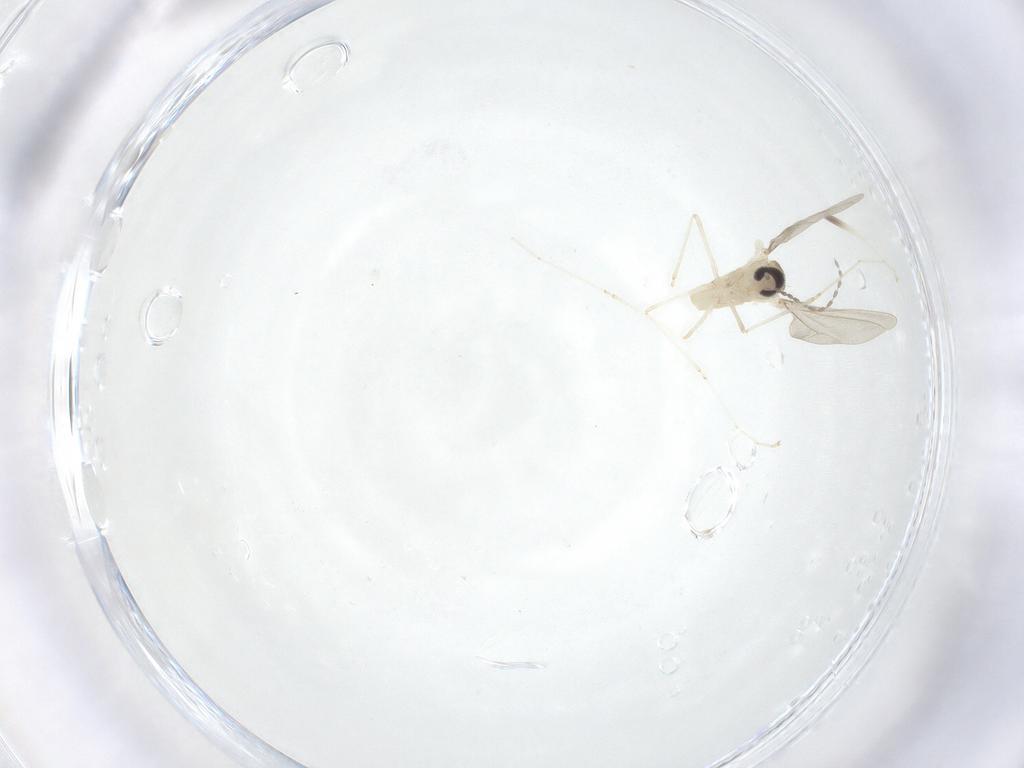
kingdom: Animalia
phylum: Arthropoda
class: Insecta
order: Diptera
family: Cecidomyiidae
